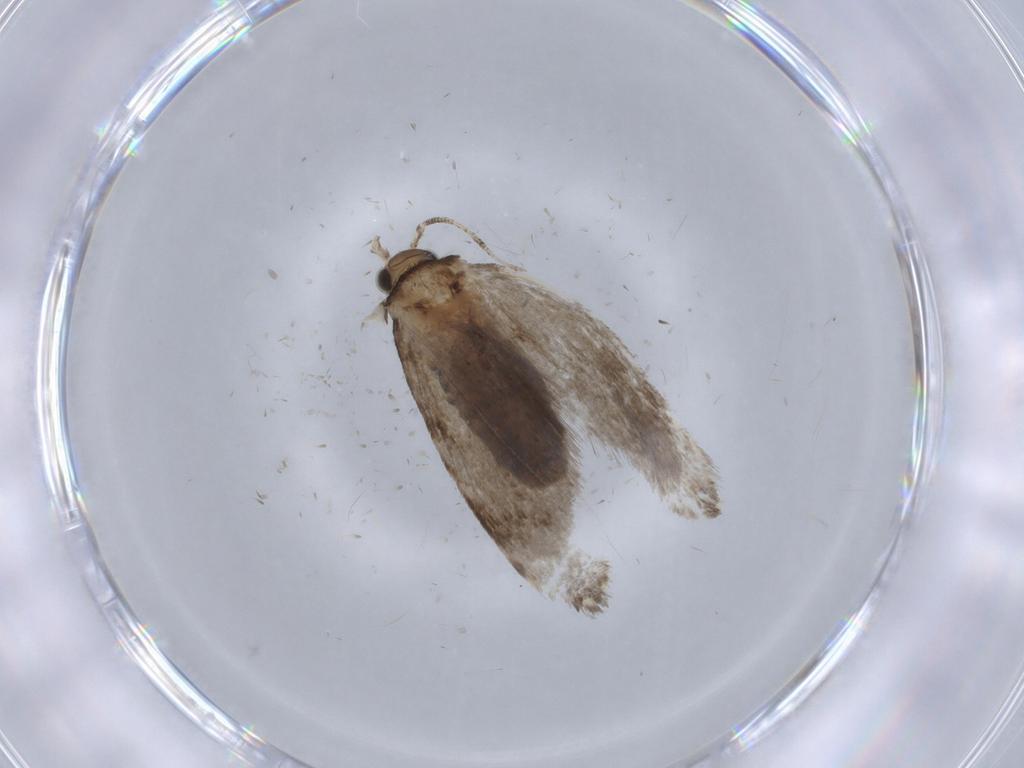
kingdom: Animalia
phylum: Arthropoda
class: Insecta
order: Lepidoptera
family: Tineidae
